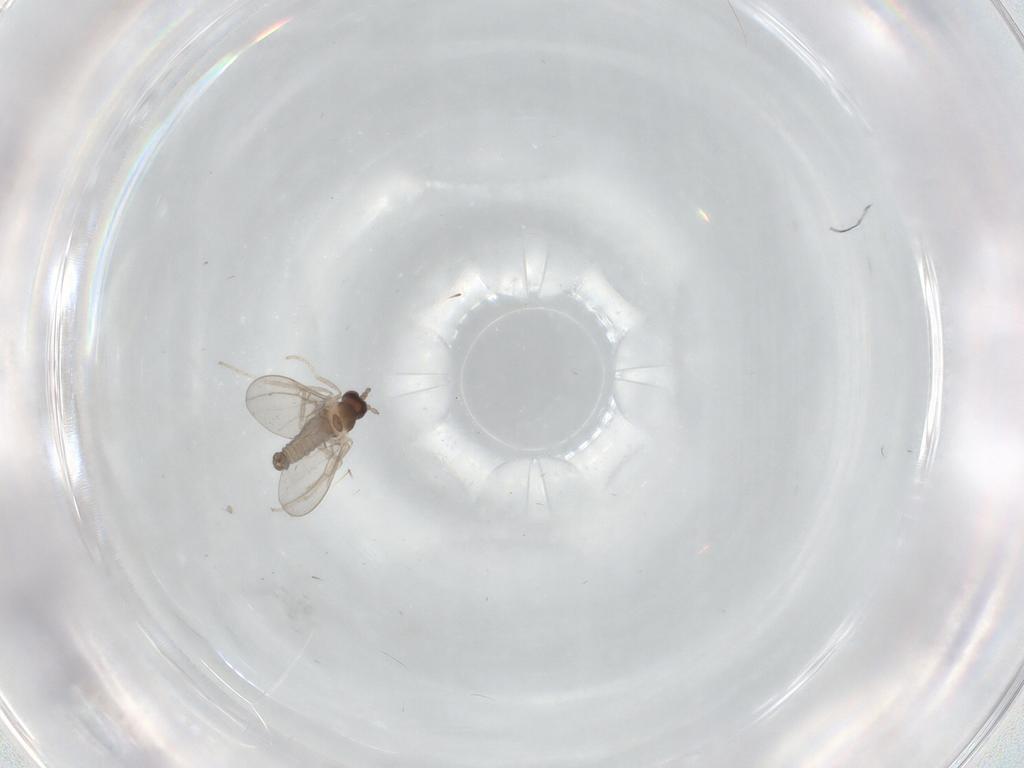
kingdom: Animalia
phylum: Arthropoda
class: Insecta
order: Diptera
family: Cecidomyiidae
